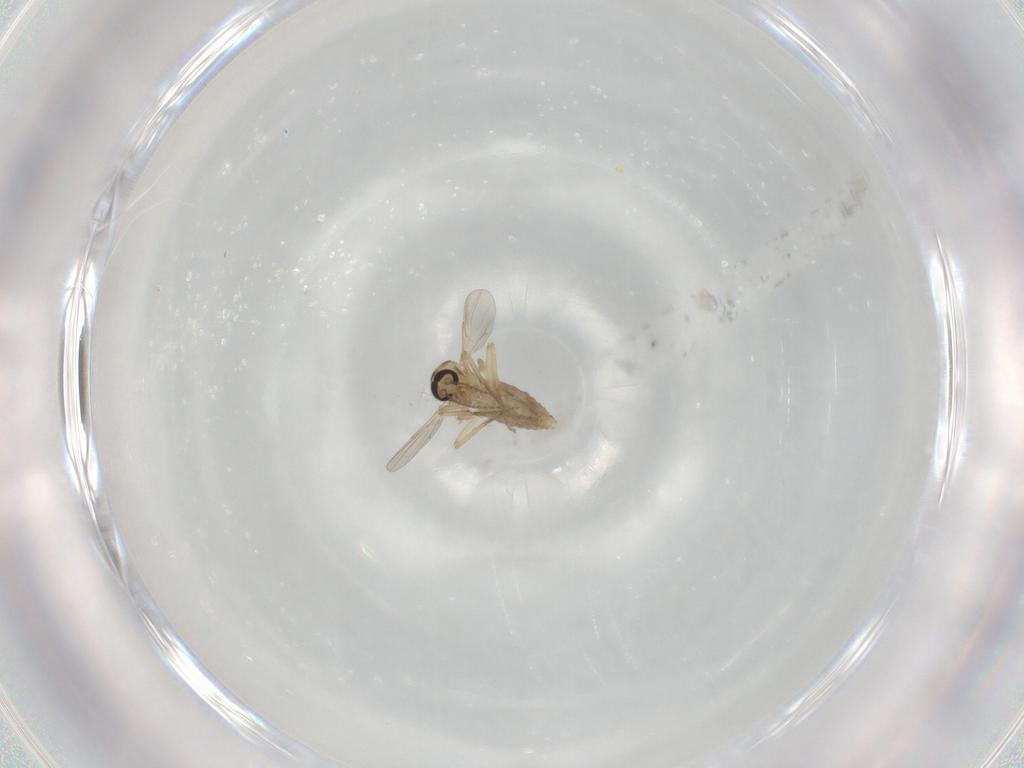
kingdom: Animalia
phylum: Arthropoda
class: Insecta
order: Diptera
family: Ceratopogonidae
